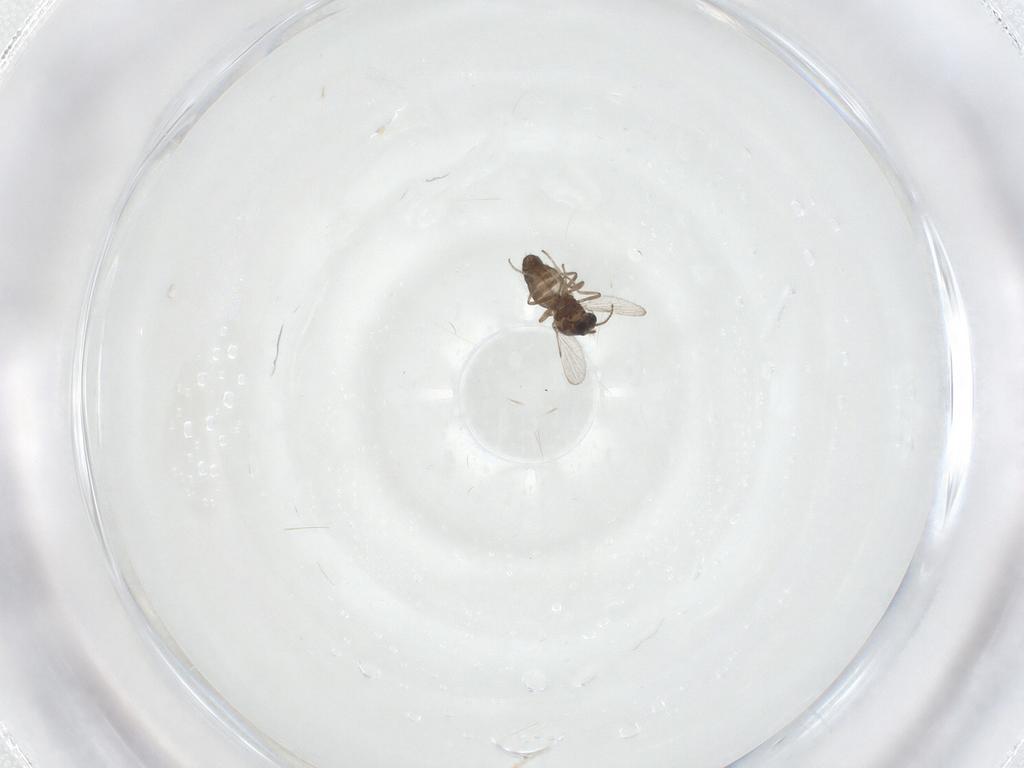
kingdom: Animalia
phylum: Arthropoda
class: Insecta
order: Diptera
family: Ceratopogonidae
